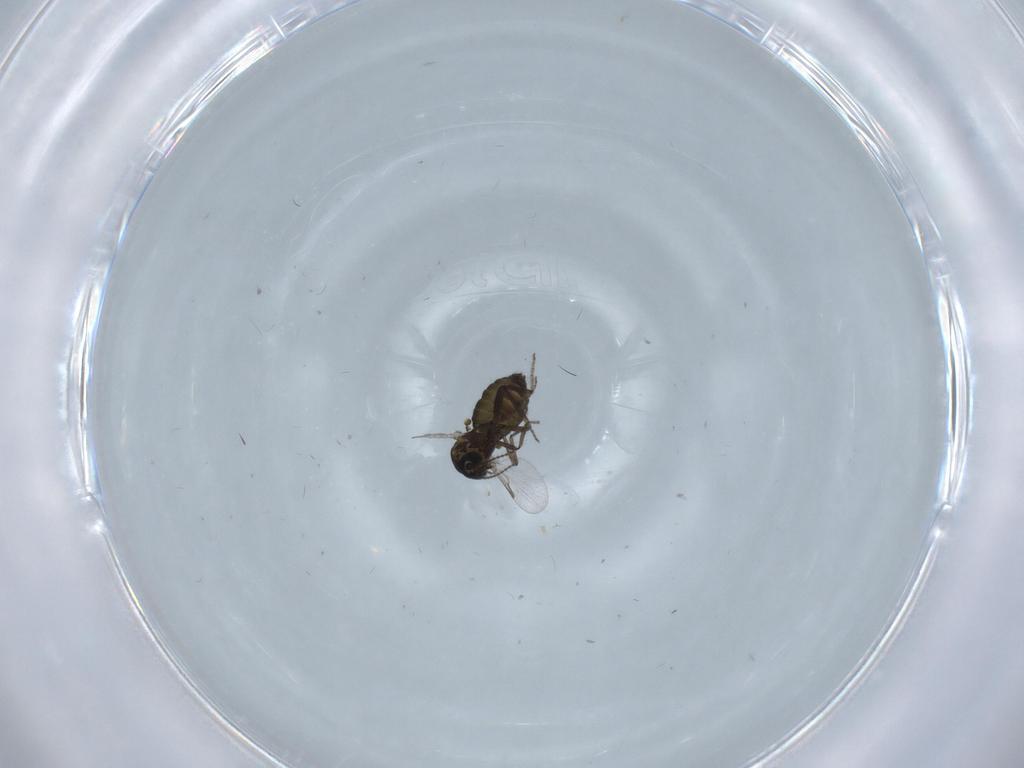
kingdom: Animalia
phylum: Arthropoda
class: Insecta
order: Diptera
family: Ceratopogonidae
